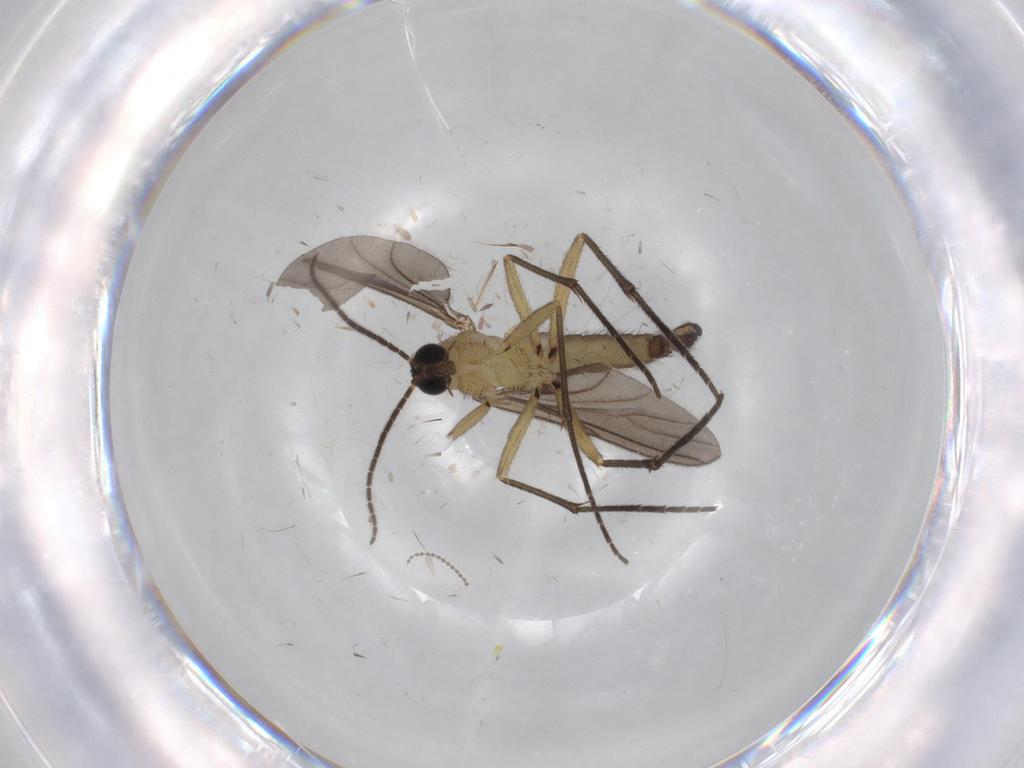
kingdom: Animalia
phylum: Arthropoda
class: Insecta
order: Diptera
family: Sciaridae
